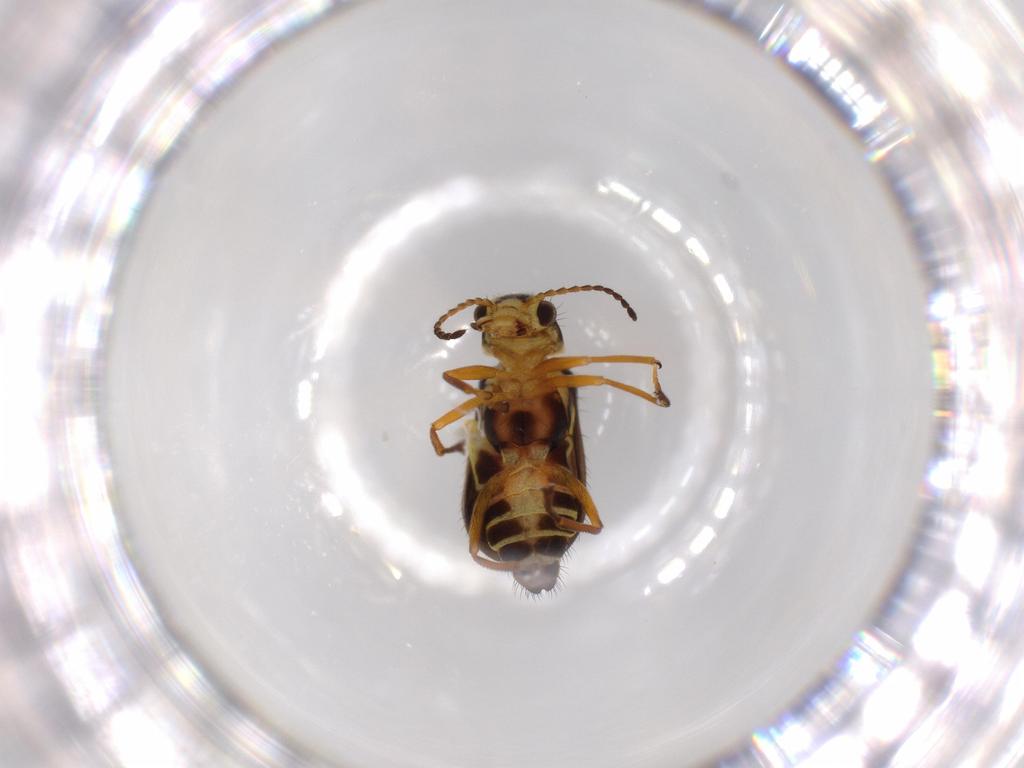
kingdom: Animalia
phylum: Arthropoda
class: Insecta
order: Coleoptera
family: Melyridae
